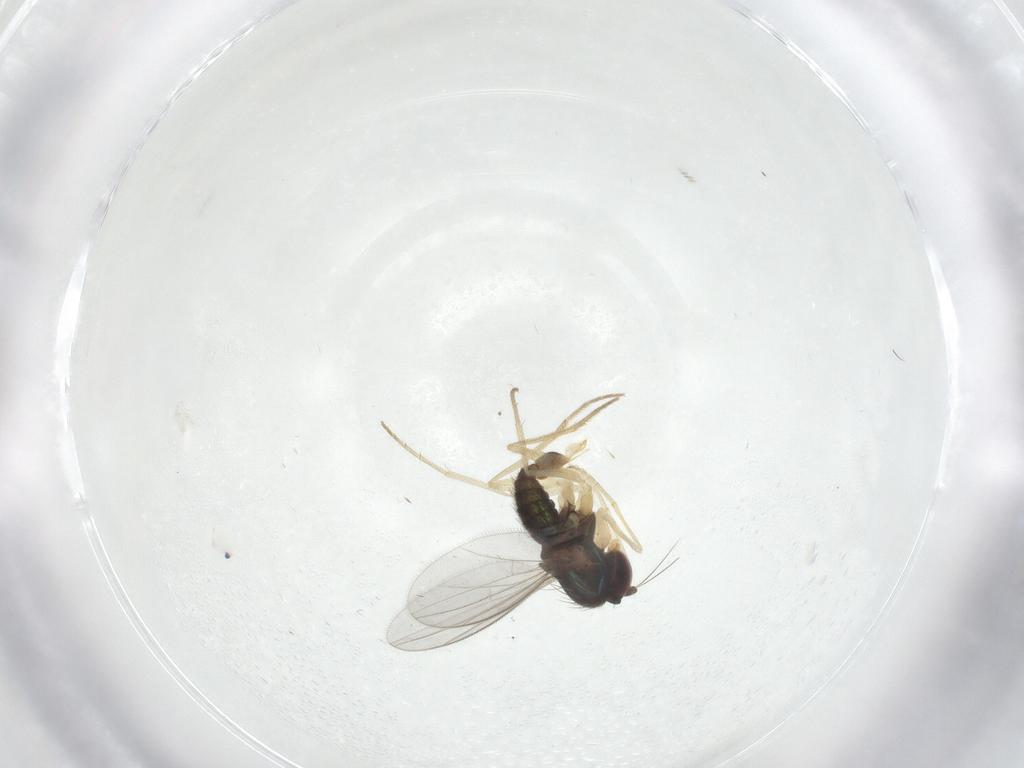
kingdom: Animalia
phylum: Arthropoda
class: Insecta
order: Diptera
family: Dolichopodidae
